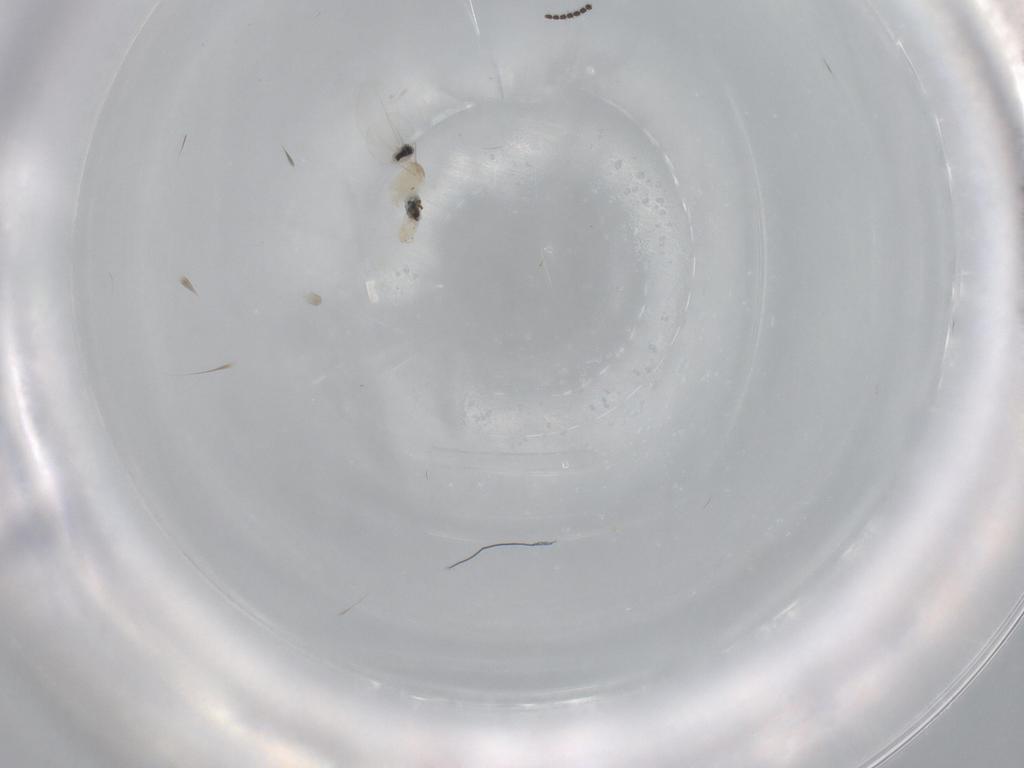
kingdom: Animalia
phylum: Arthropoda
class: Insecta
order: Diptera
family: Cecidomyiidae
